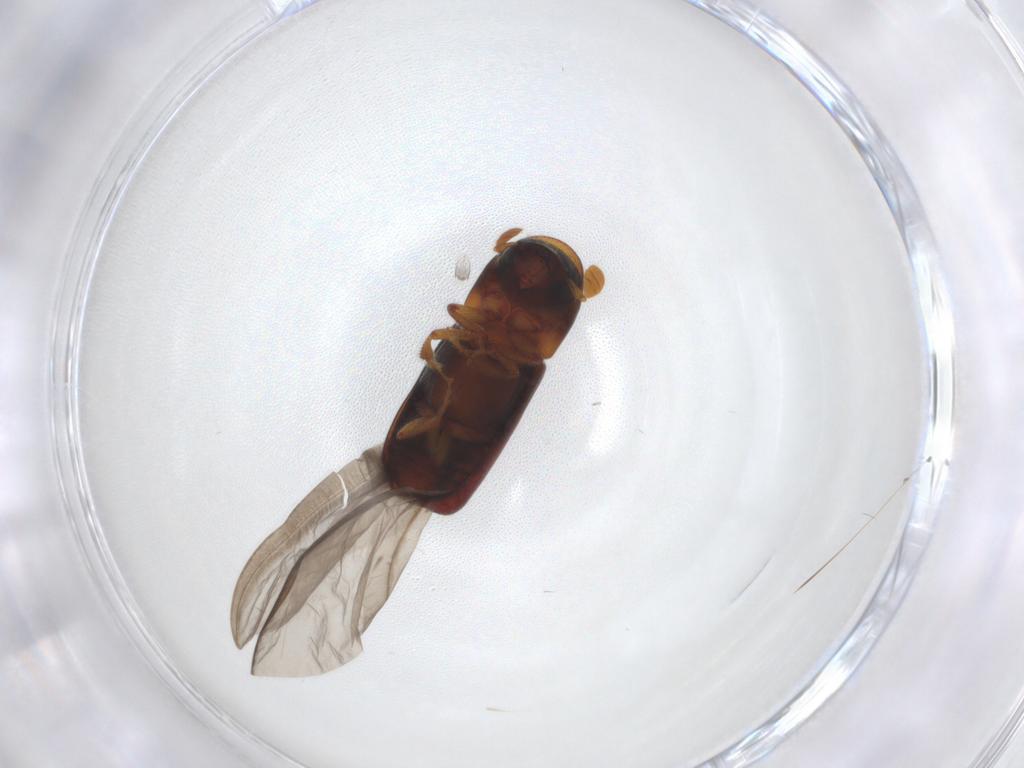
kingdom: Animalia
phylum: Arthropoda
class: Insecta
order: Coleoptera
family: Curculionidae
